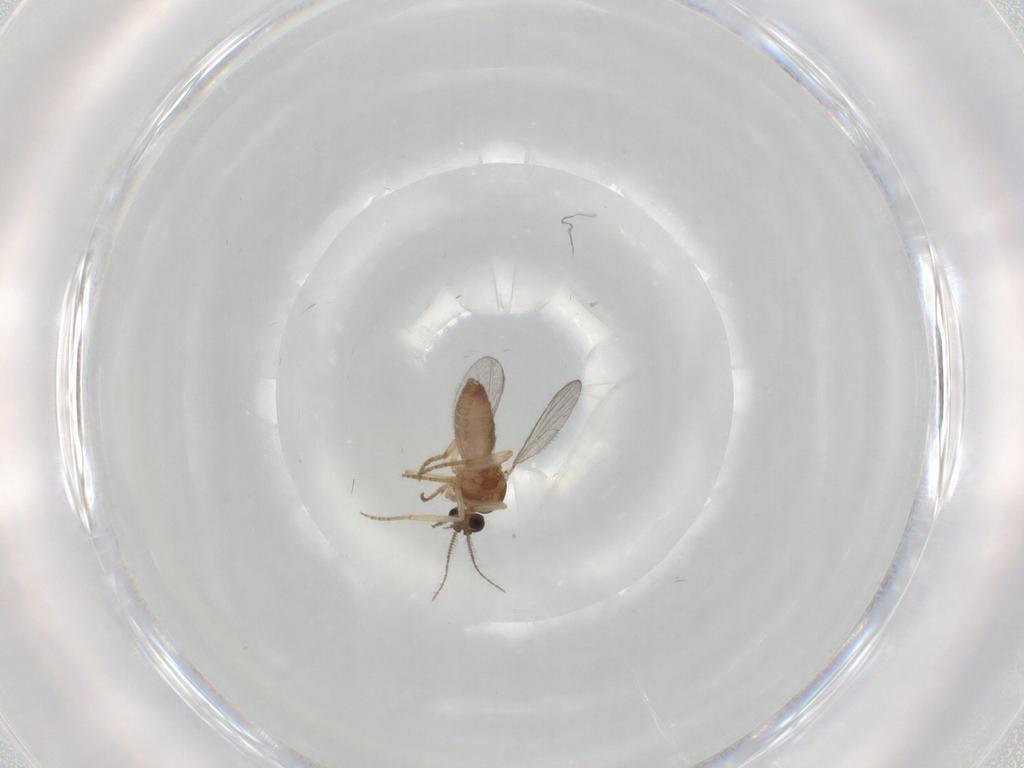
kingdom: Animalia
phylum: Arthropoda
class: Insecta
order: Diptera
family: Ceratopogonidae
